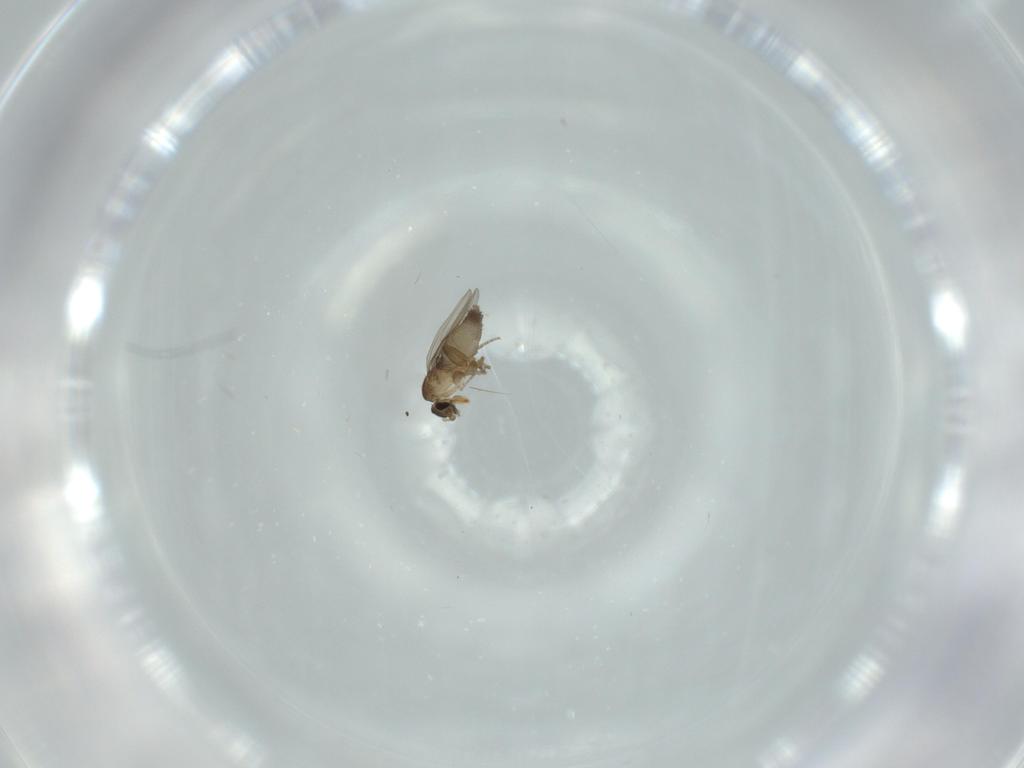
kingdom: Animalia
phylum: Arthropoda
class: Insecta
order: Diptera
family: Phoridae
